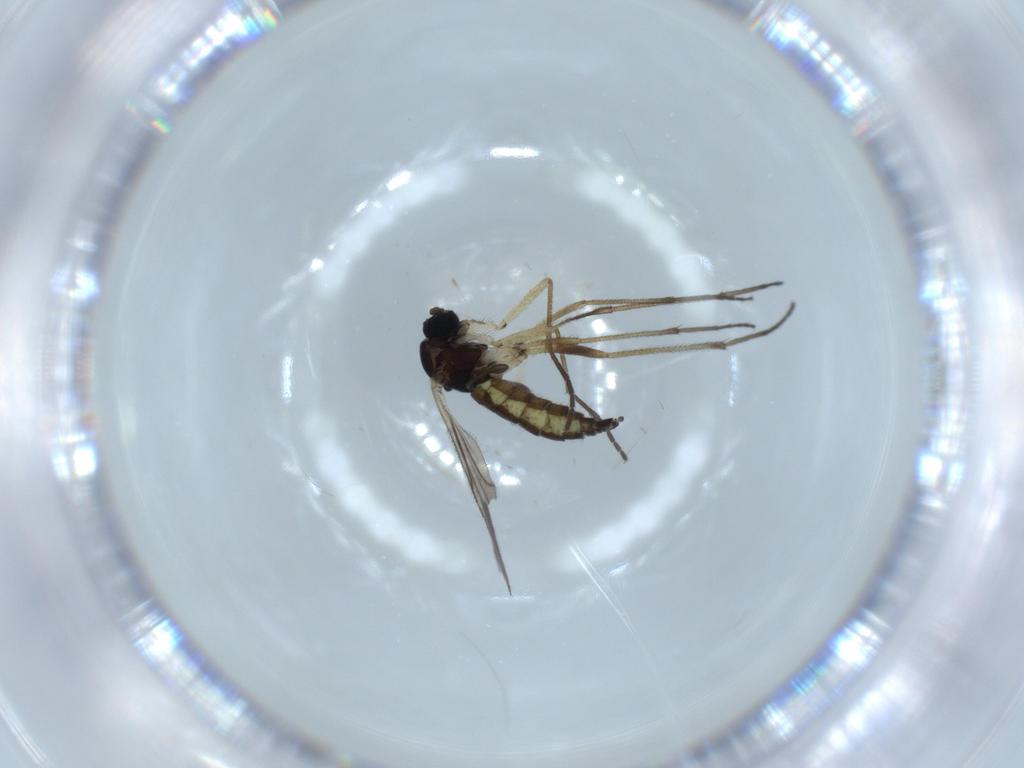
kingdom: Animalia
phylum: Arthropoda
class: Insecta
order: Diptera
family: Sciaridae
